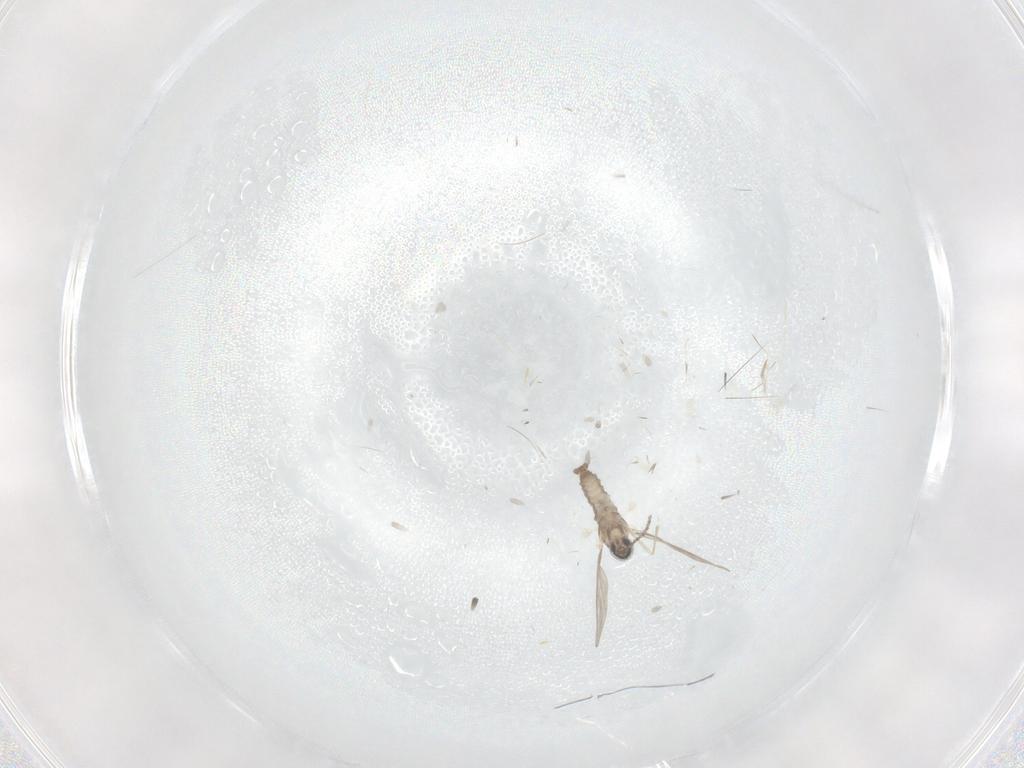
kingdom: Animalia
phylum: Arthropoda
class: Insecta
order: Diptera
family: Cecidomyiidae
